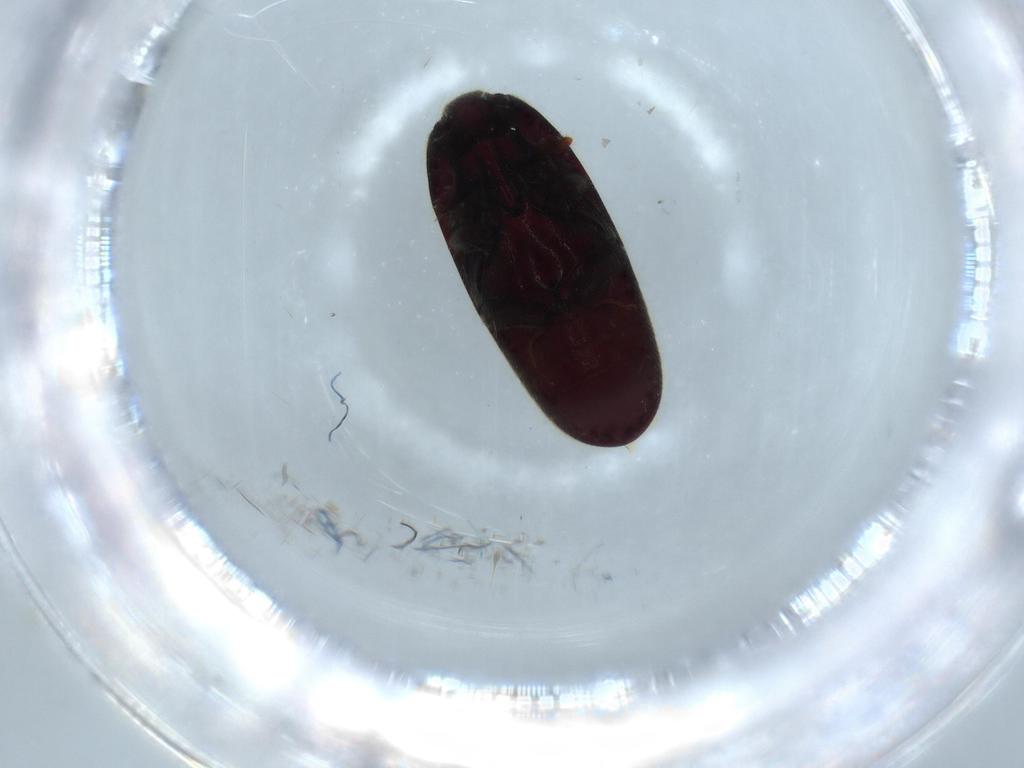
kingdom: Animalia
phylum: Arthropoda
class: Insecta
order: Coleoptera
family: Throscidae
